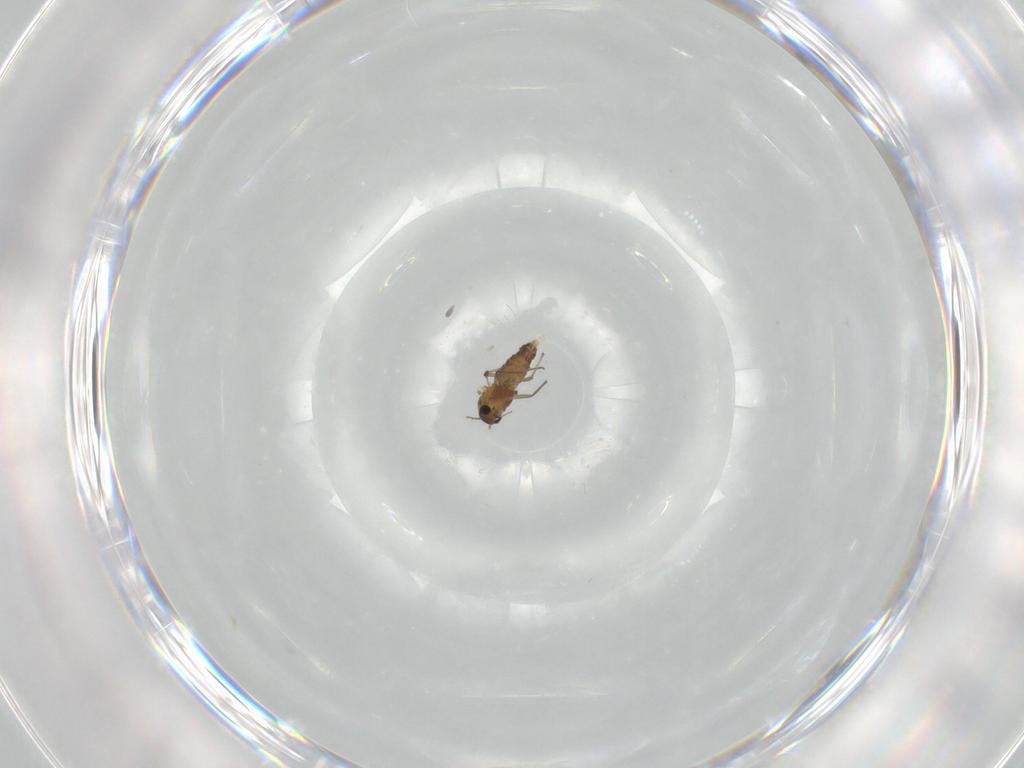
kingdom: Animalia
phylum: Arthropoda
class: Insecta
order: Diptera
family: Chironomidae
